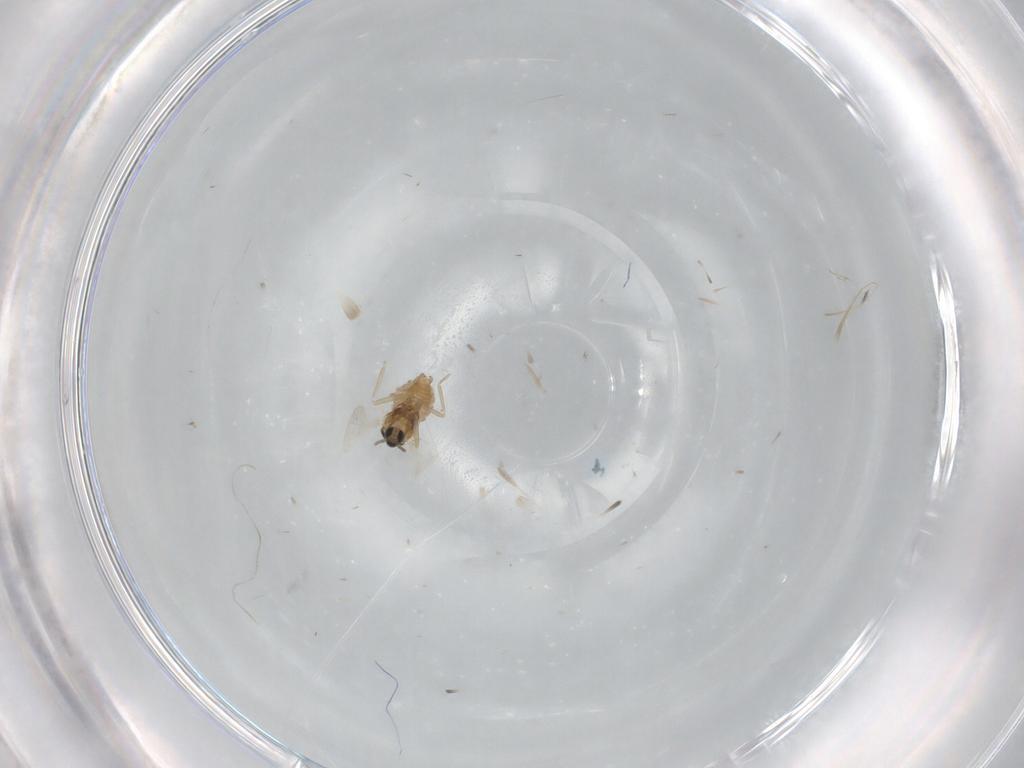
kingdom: Animalia
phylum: Arthropoda
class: Insecta
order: Diptera
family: Cecidomyiidae
